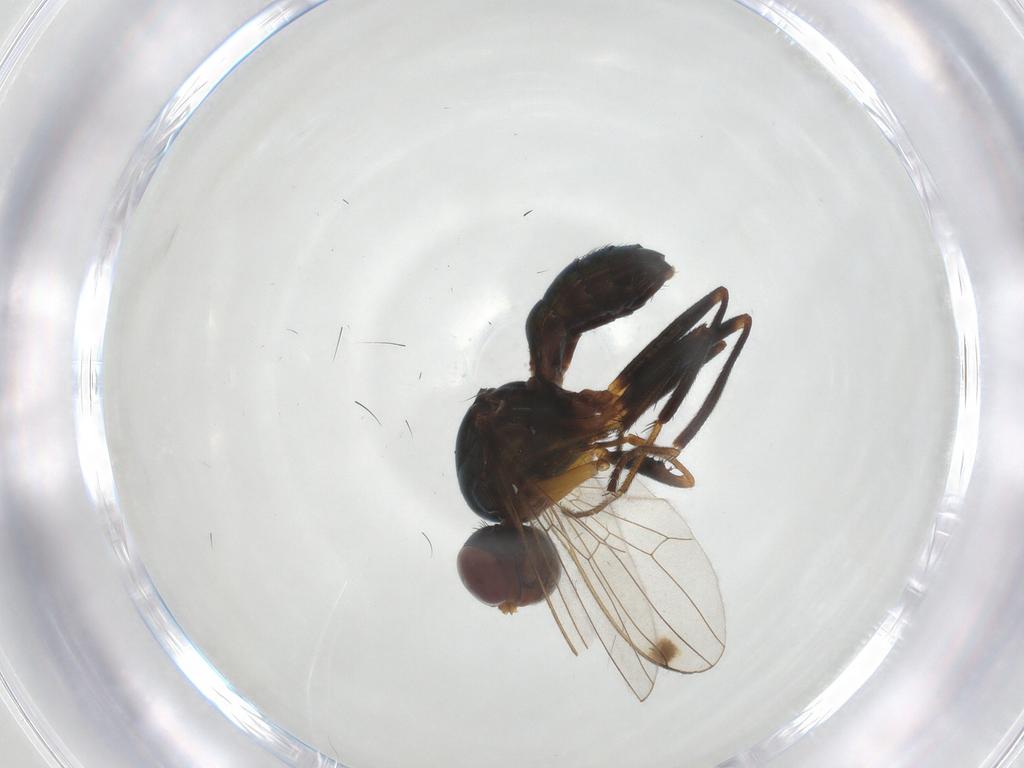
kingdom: Animalia
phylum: Arthropoda
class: Insecta
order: Diptera
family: Sepsidae
